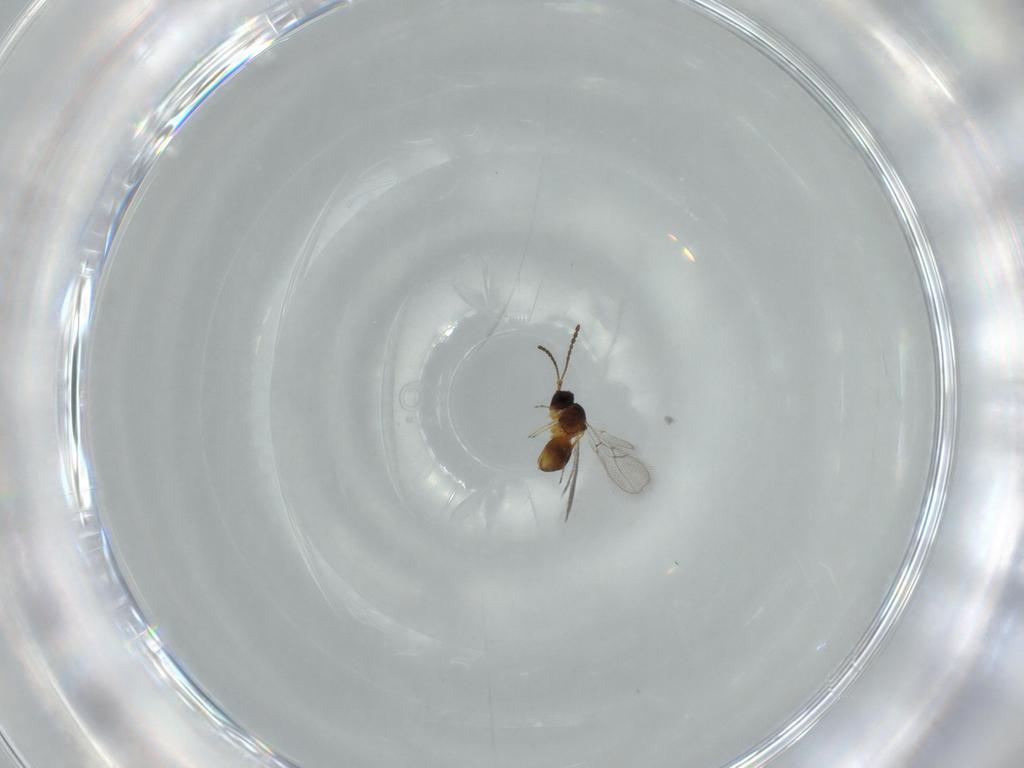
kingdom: Animalia
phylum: Arthropoda
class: Insecta
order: Hymenoptera
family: Figitidae
